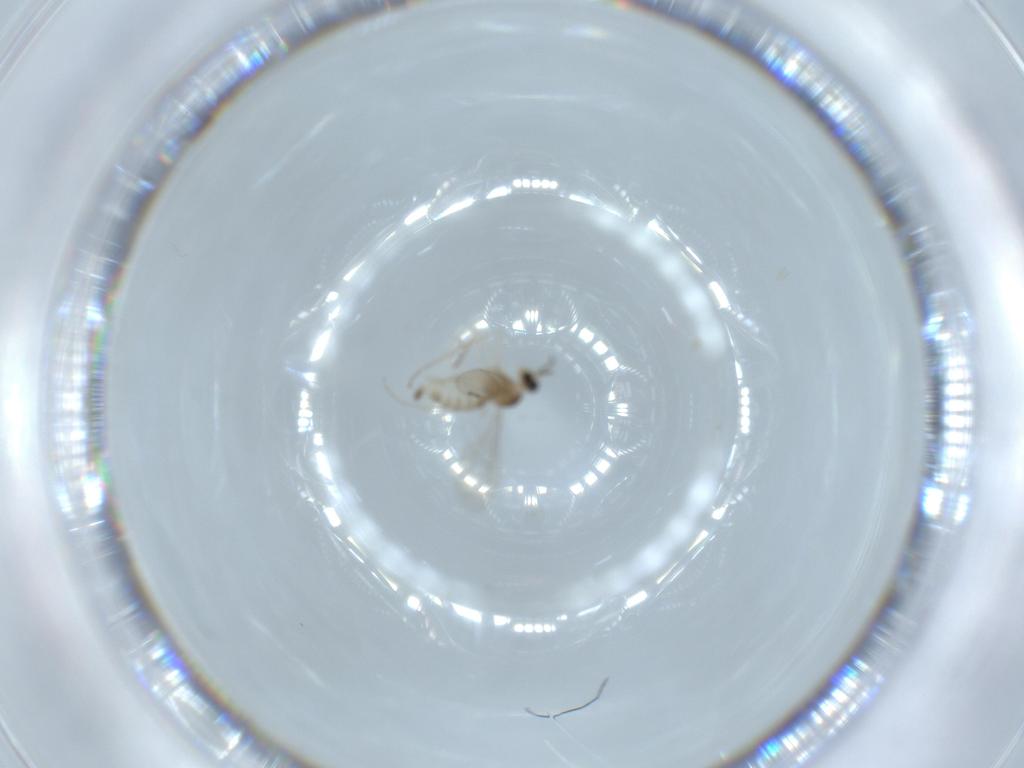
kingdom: Animalia
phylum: Arthropoda
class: Insecta
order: Diptera
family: Cecidomyiidae
